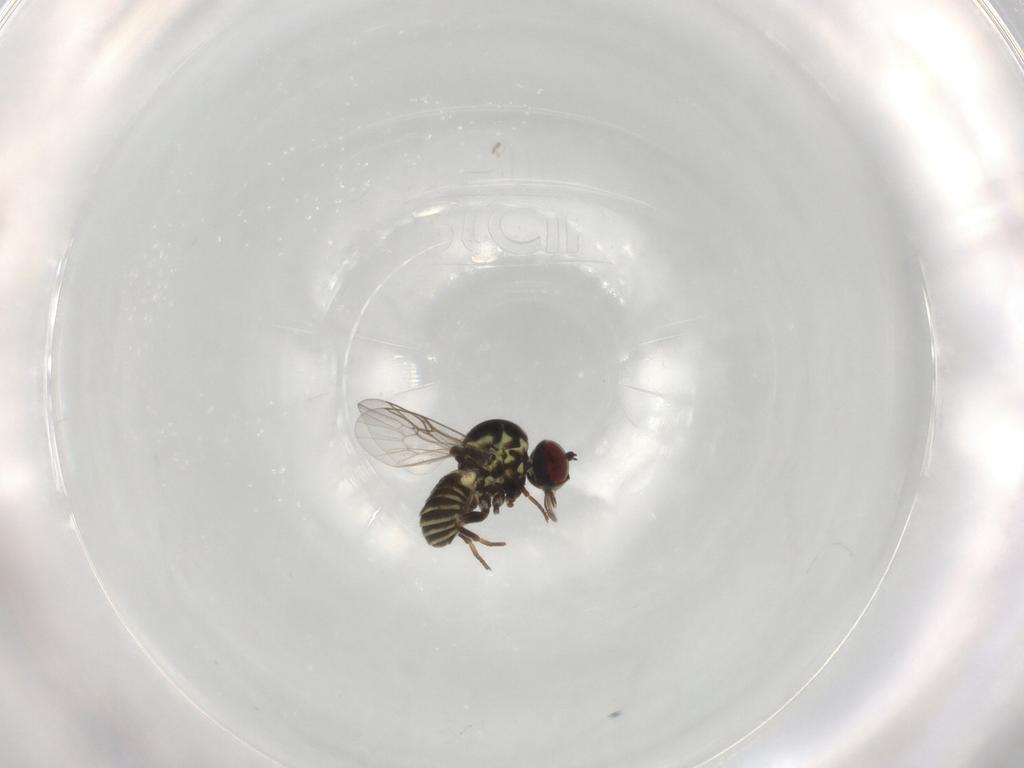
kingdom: Animalia
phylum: Arthropoda
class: Insecta
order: Diptera
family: Mythicomyiidae
